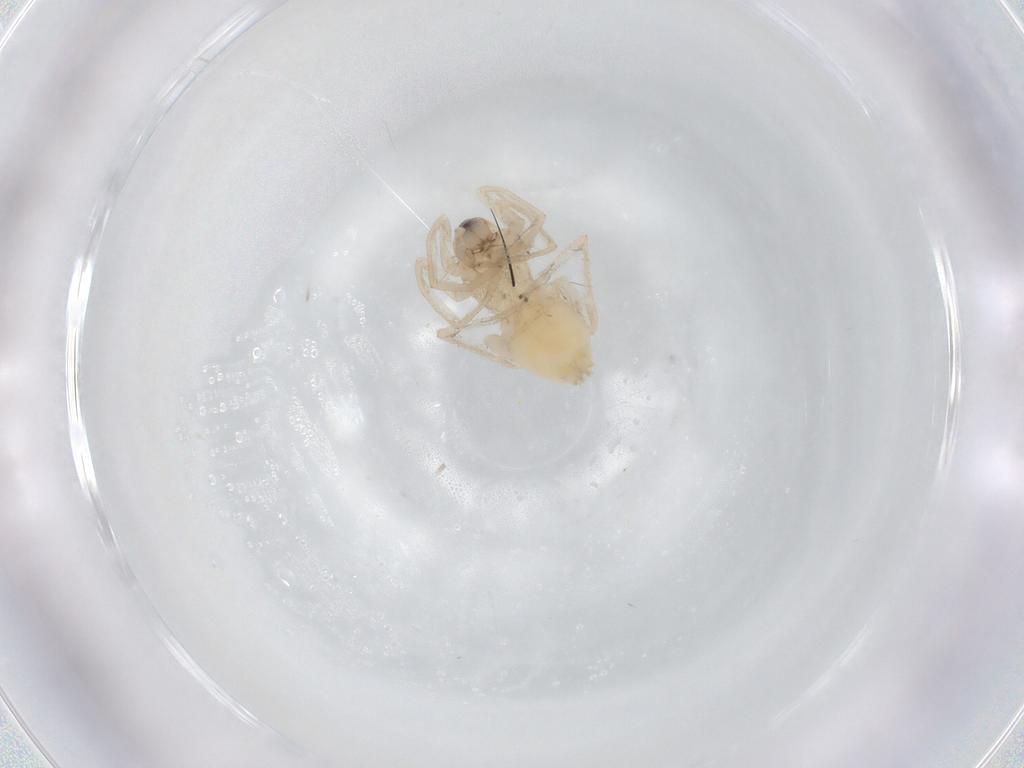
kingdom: Animalia
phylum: Arthropoda
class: Arachnida
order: Araneae
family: Gnaphosidae
